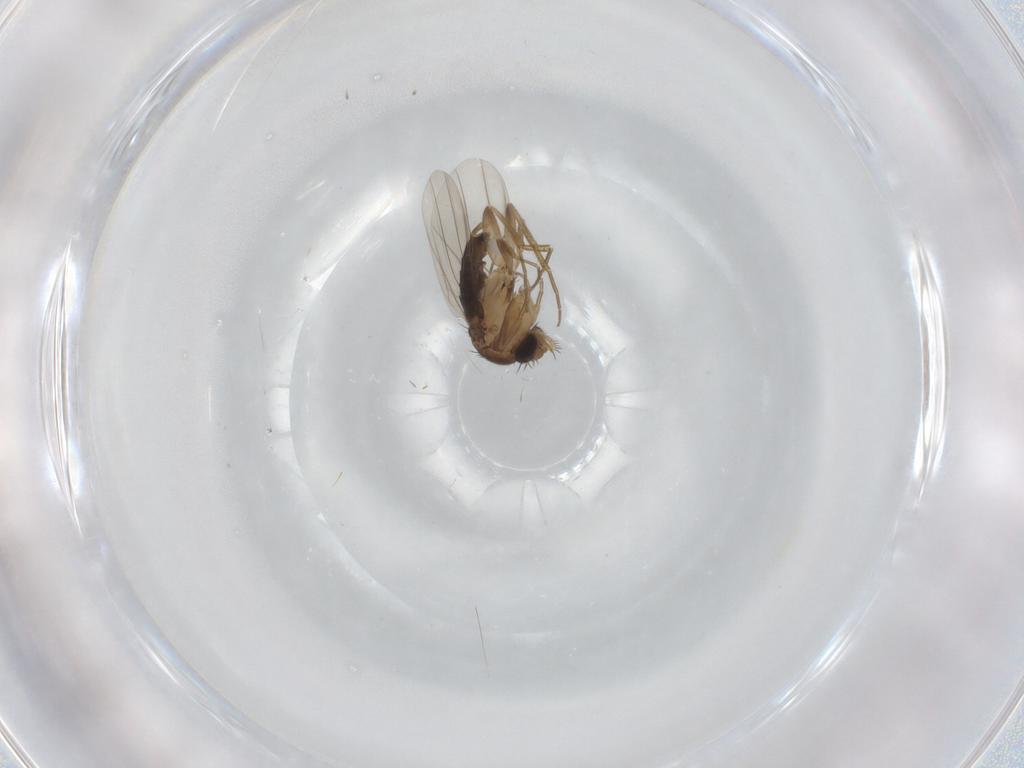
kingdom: Animalia
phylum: Arthropoda
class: Insecta
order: Diptera
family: Phoridae
